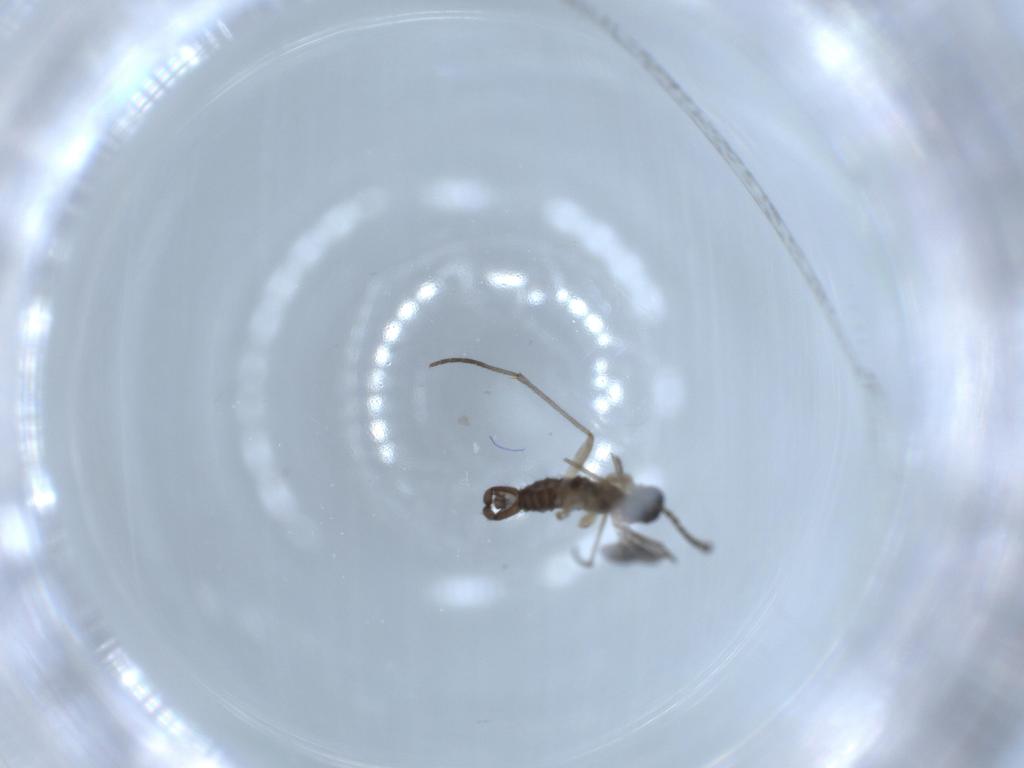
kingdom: Animalia
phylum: Arthropoda
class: Insecta
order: Diptera
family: Sciaridae
